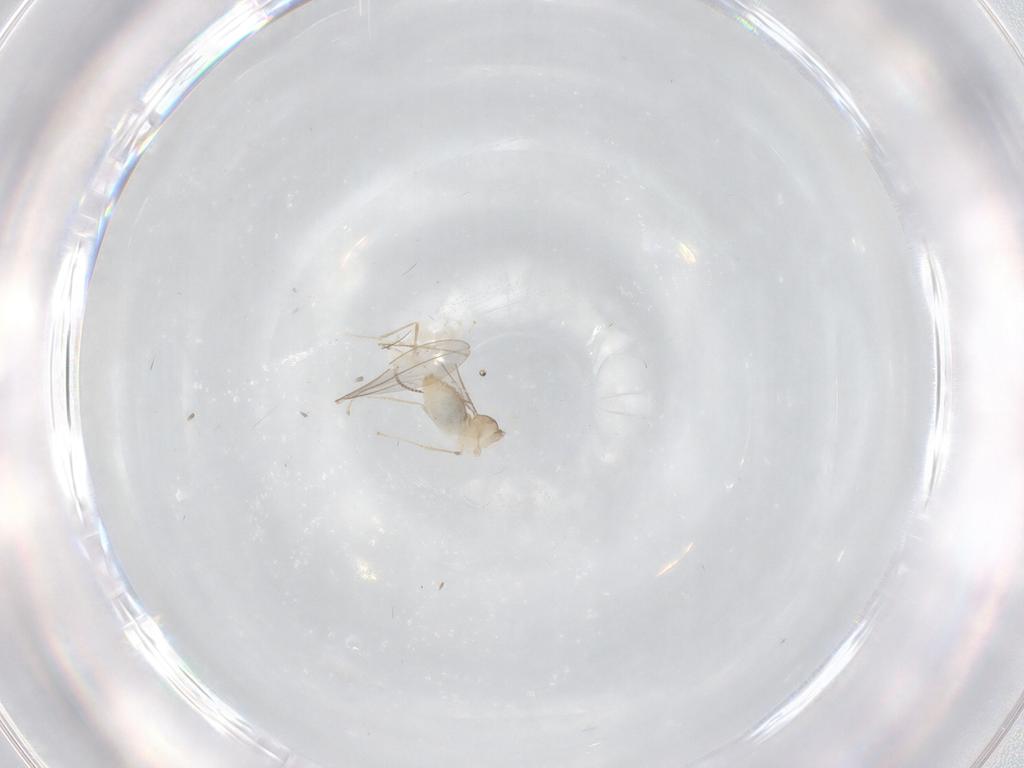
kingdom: Animalia
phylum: Arthropoda
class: Insecta
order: Diptera
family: Cecidomyiidae
